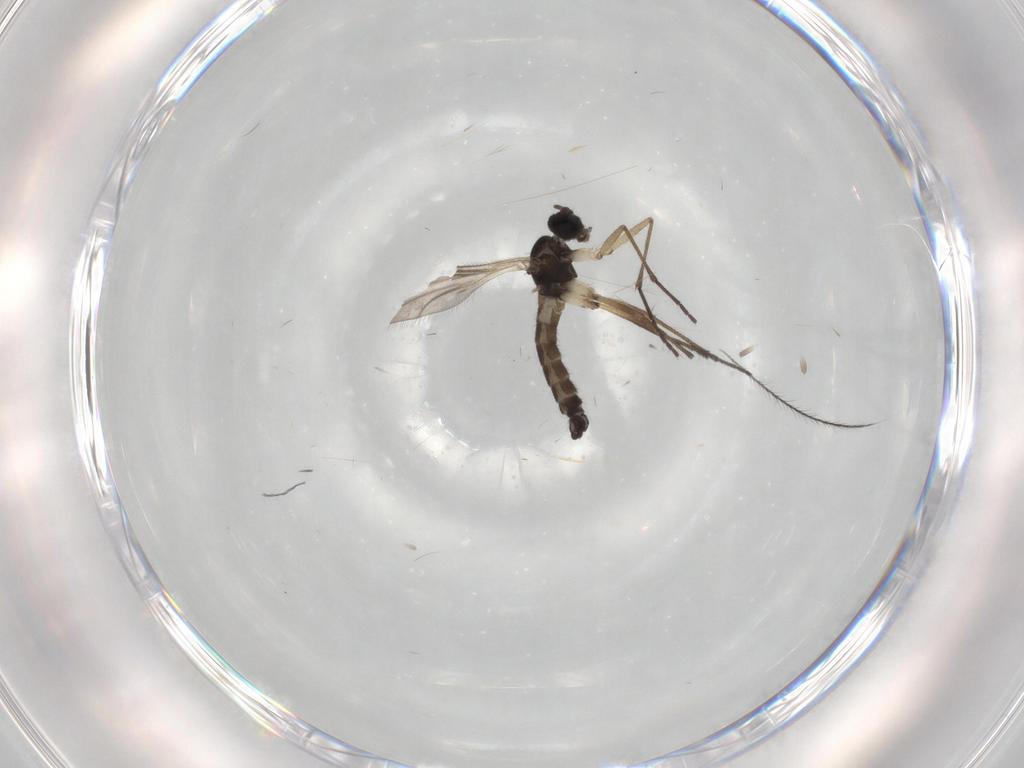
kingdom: Animalia
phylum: Arthropoda
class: Insecta
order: Diptera
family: Sciaridae
